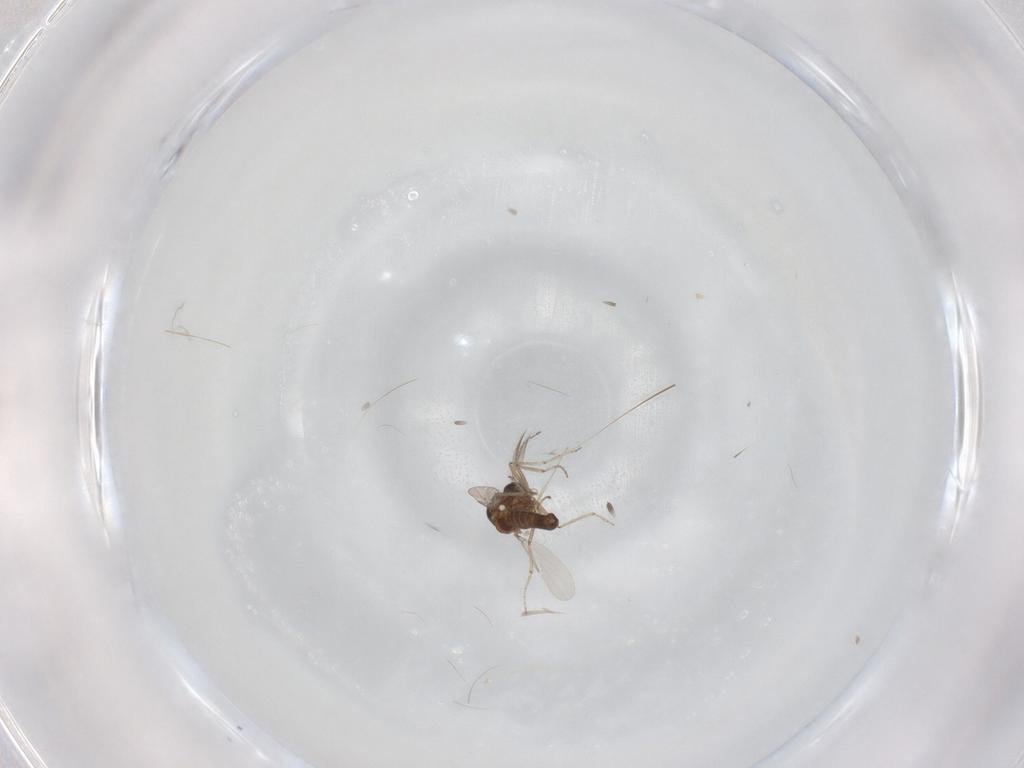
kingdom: Animalia
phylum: Arthropoda
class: Insecta
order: Diptera
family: Ceratopogonidae
